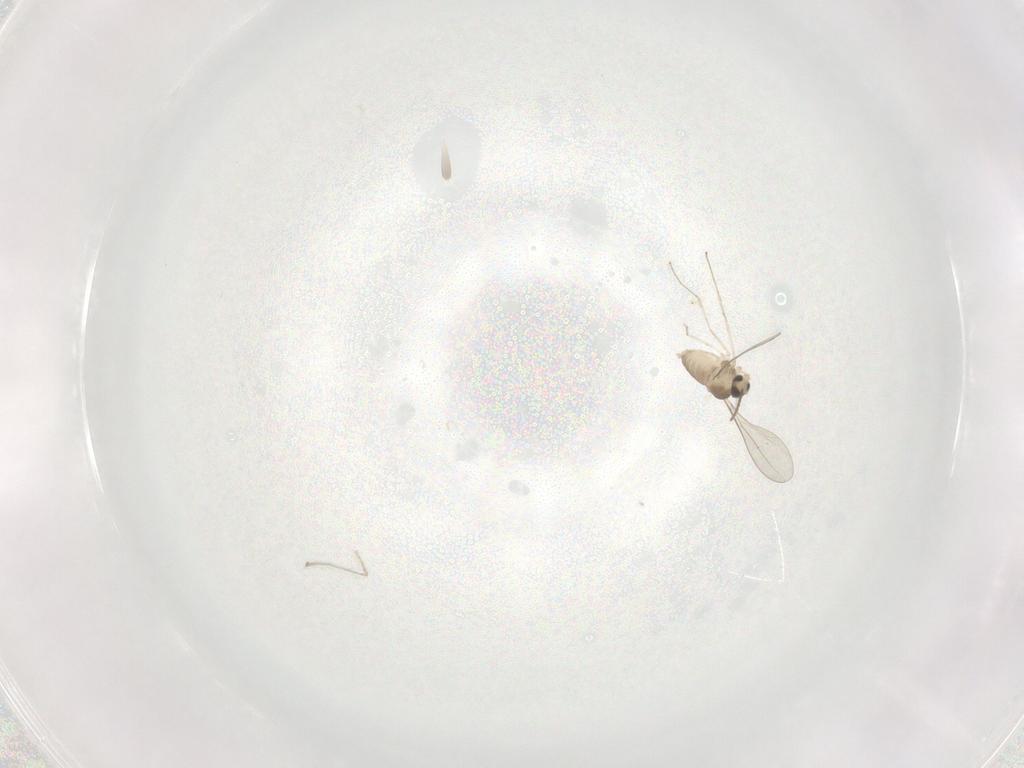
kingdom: Animalia
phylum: Arthropoda
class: Insecta
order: Diptera
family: Cecidomyiidae
